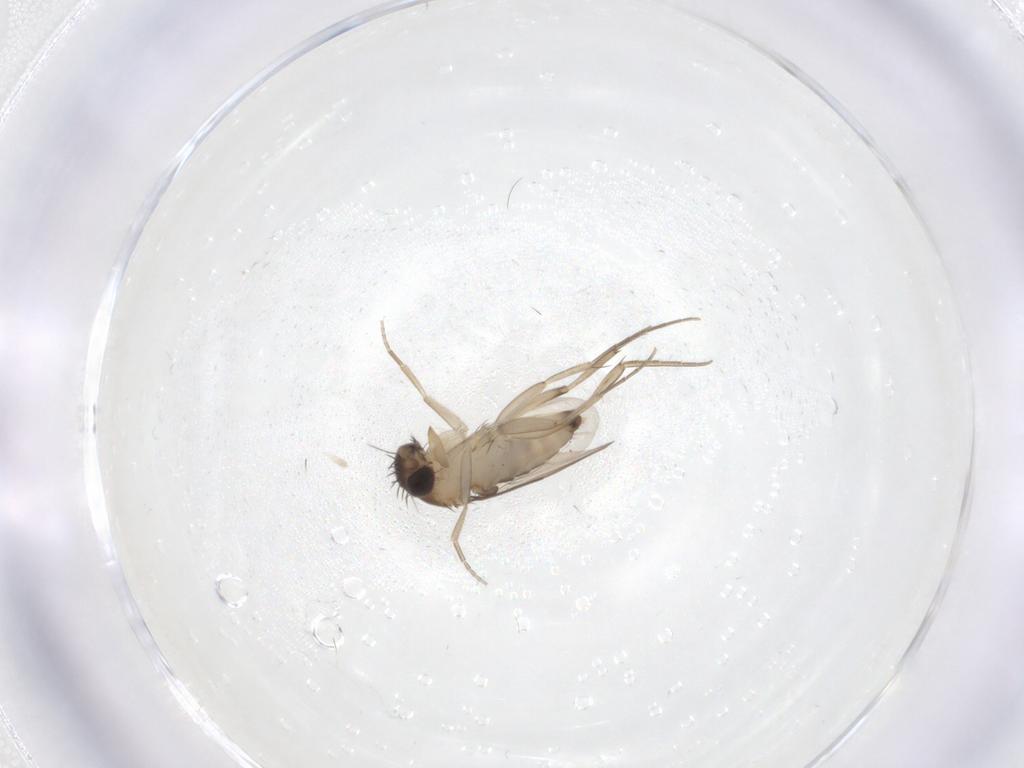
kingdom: Animalia
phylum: Arthropoda
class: Insecta
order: Diptera
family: Phoridae
